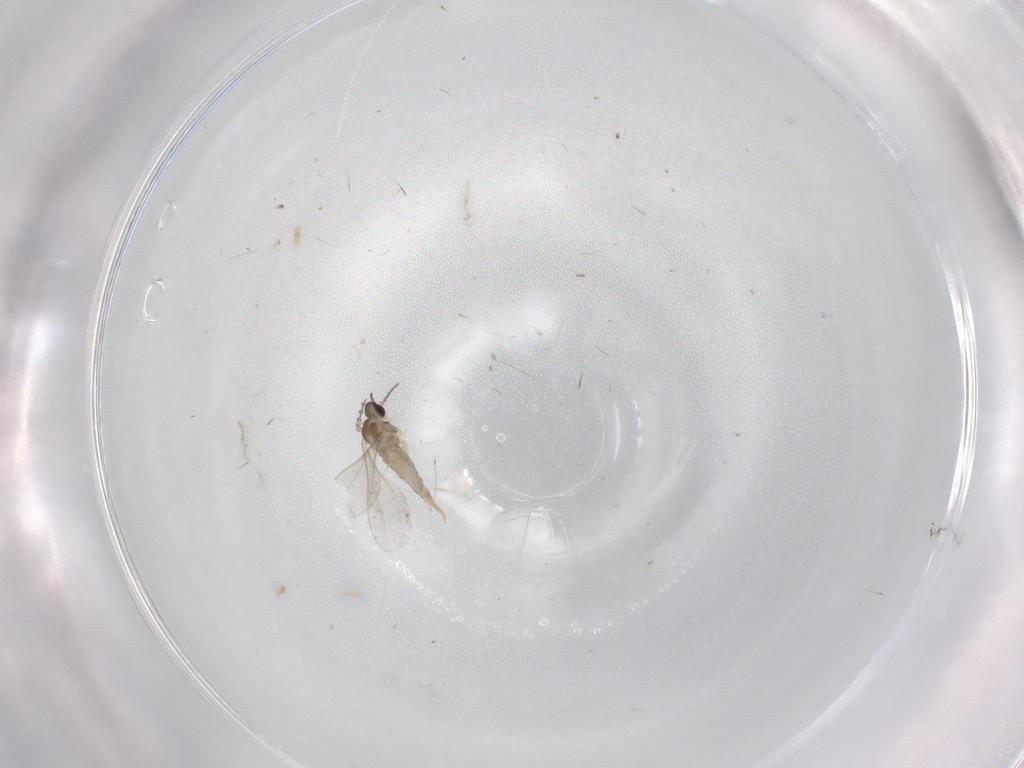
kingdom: Animalia
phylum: Arthropoda
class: Insecta
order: Diptera
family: Cecidomyiidae
